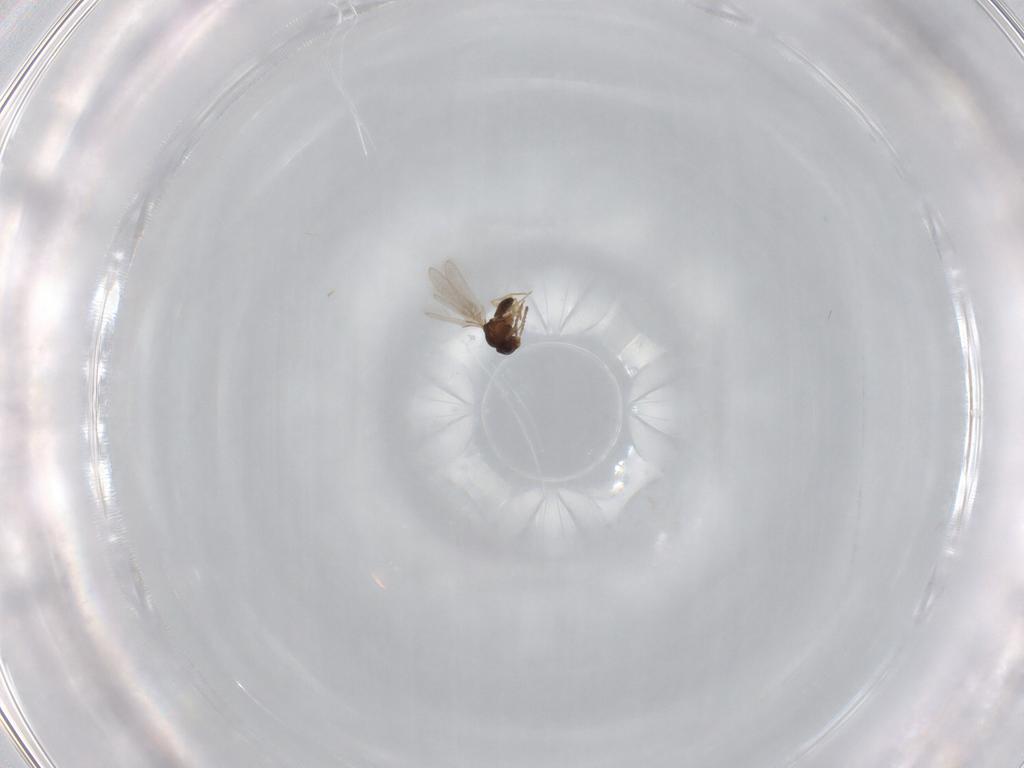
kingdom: Animalia
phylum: Arthropoda
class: Insecta
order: Hymenoptera
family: Scelionidae
